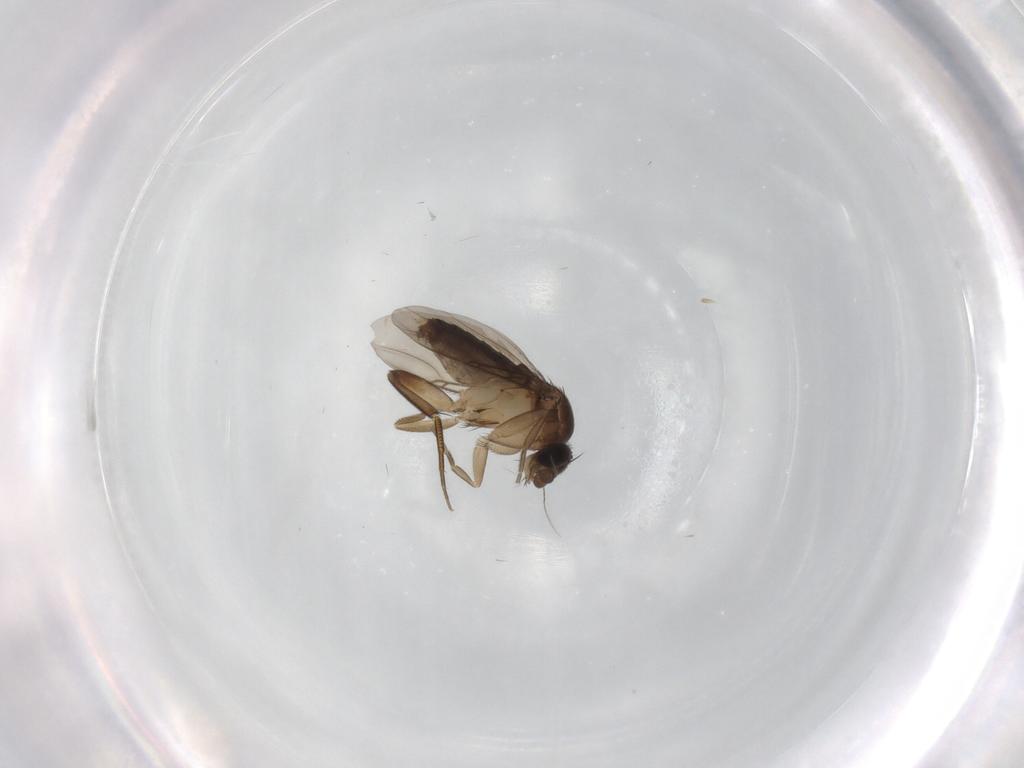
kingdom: Animalia
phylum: Arthropoda
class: Insecta
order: Diptera
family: Phoridae
